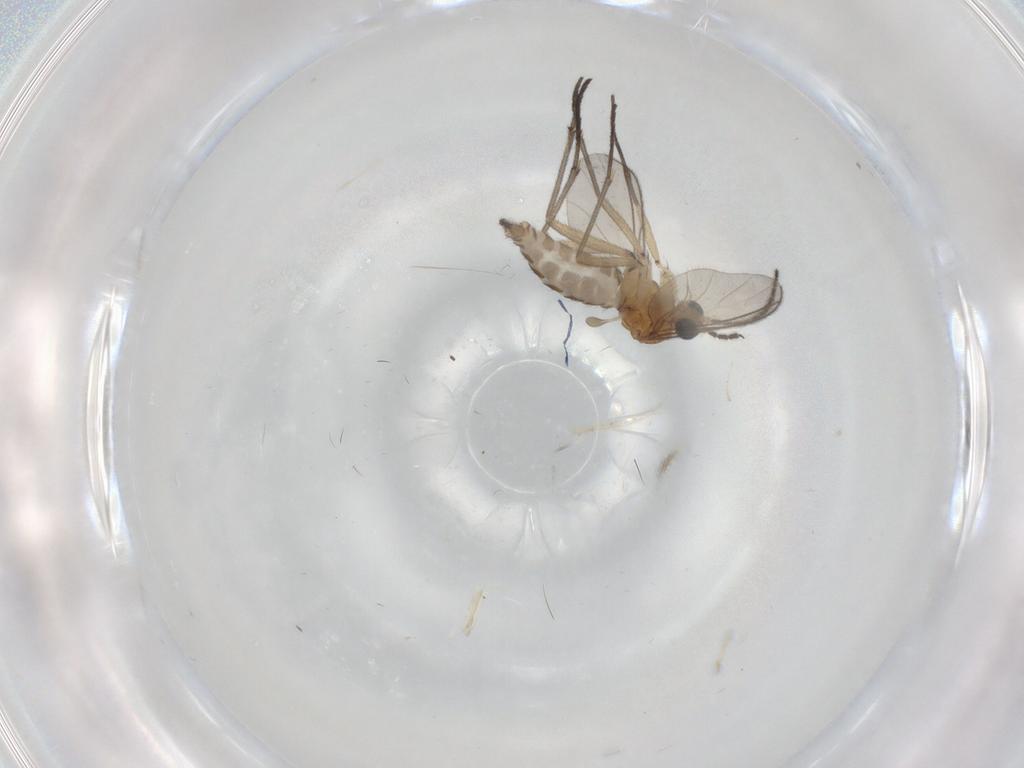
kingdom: Animalia
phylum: Arthropoda
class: Insecta
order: Diptera
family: Sciaridae
